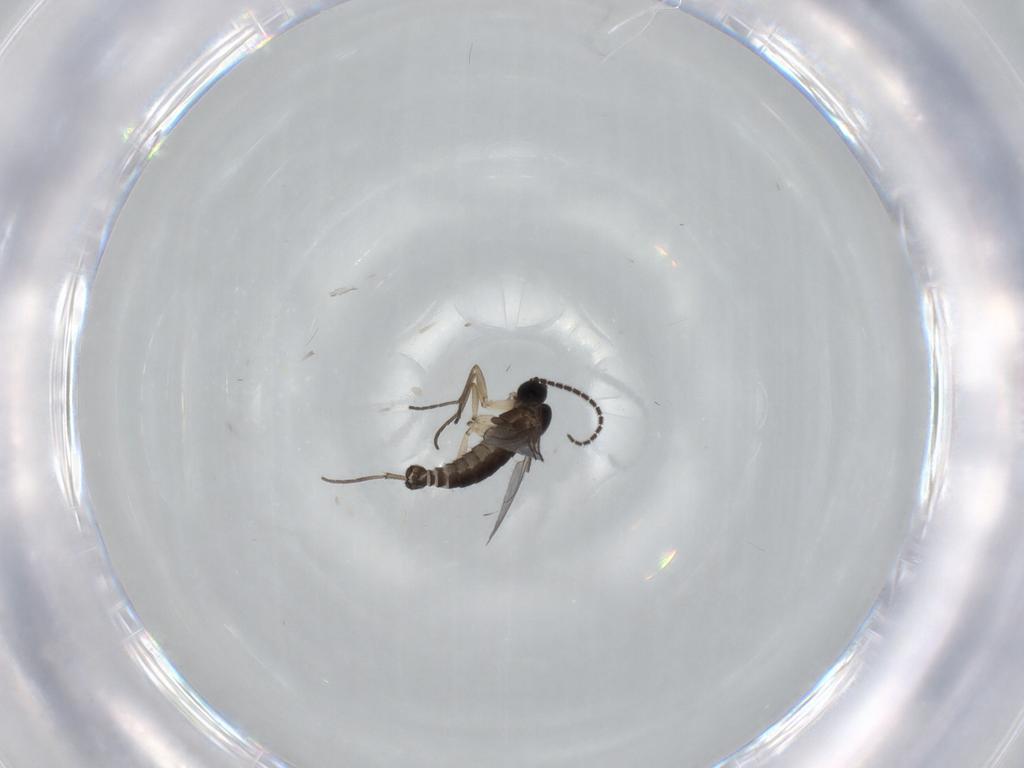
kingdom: Animalia
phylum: Arthropoda
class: Insecta
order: Diptera
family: Sciaridae
